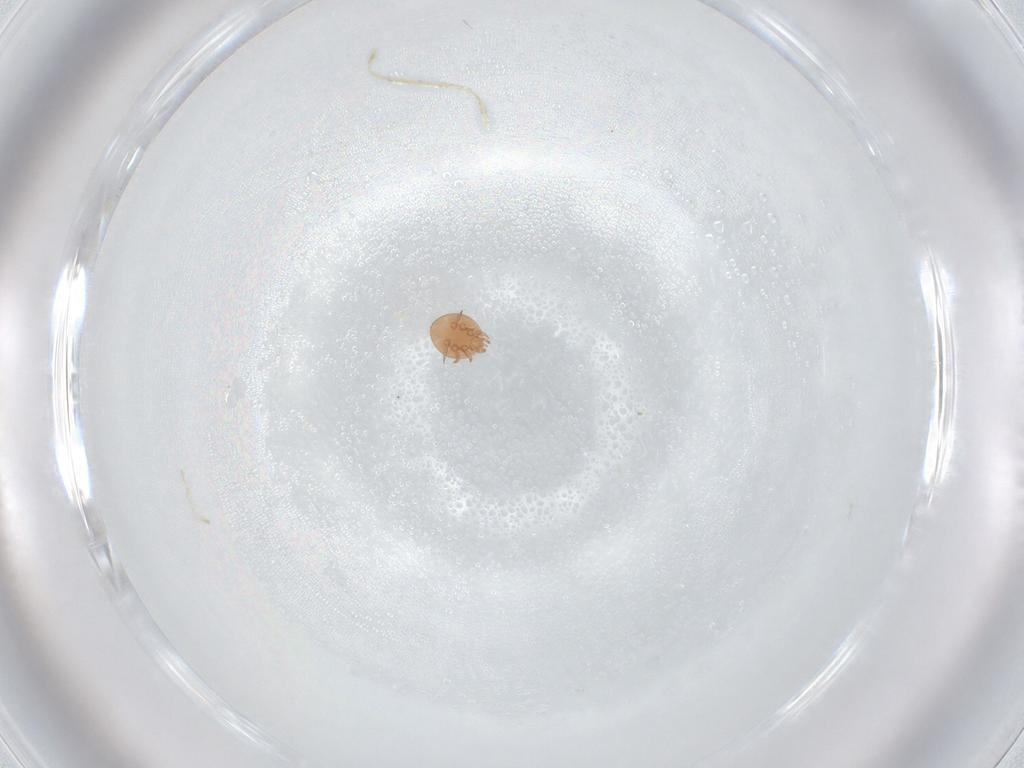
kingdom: Animalia
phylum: Arthropoda
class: Arachnida
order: Mesostigmata
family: Trematuridae
